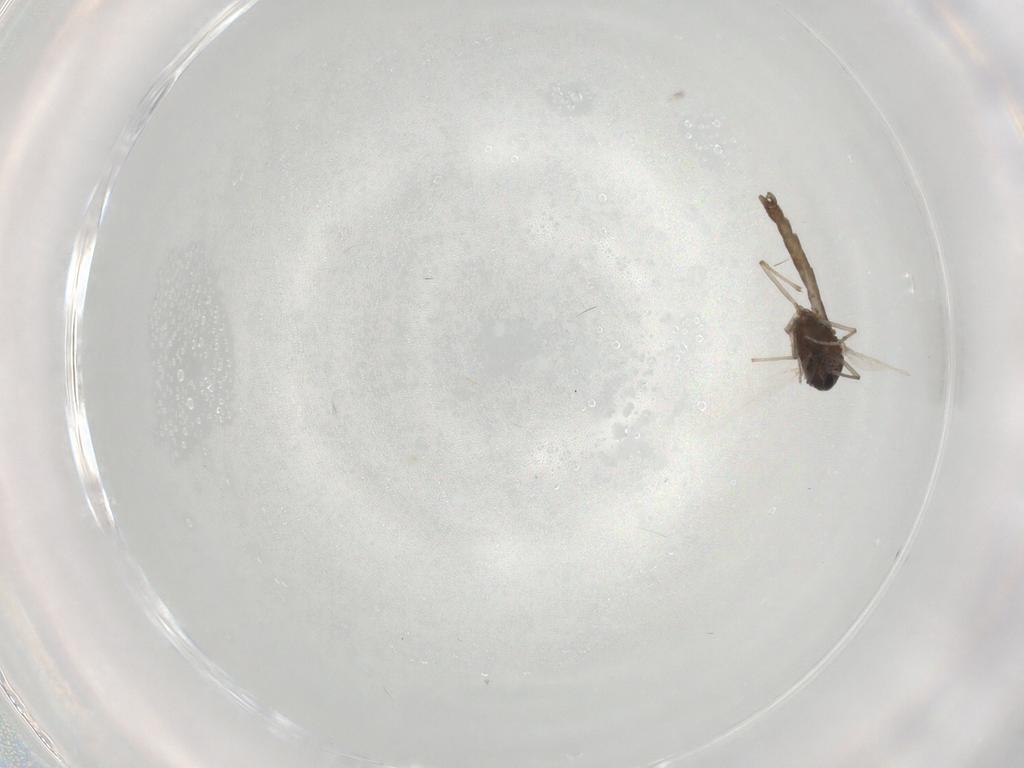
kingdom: Animalia
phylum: Arthropoda
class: Insecta
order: Diptera
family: Chironomidae
